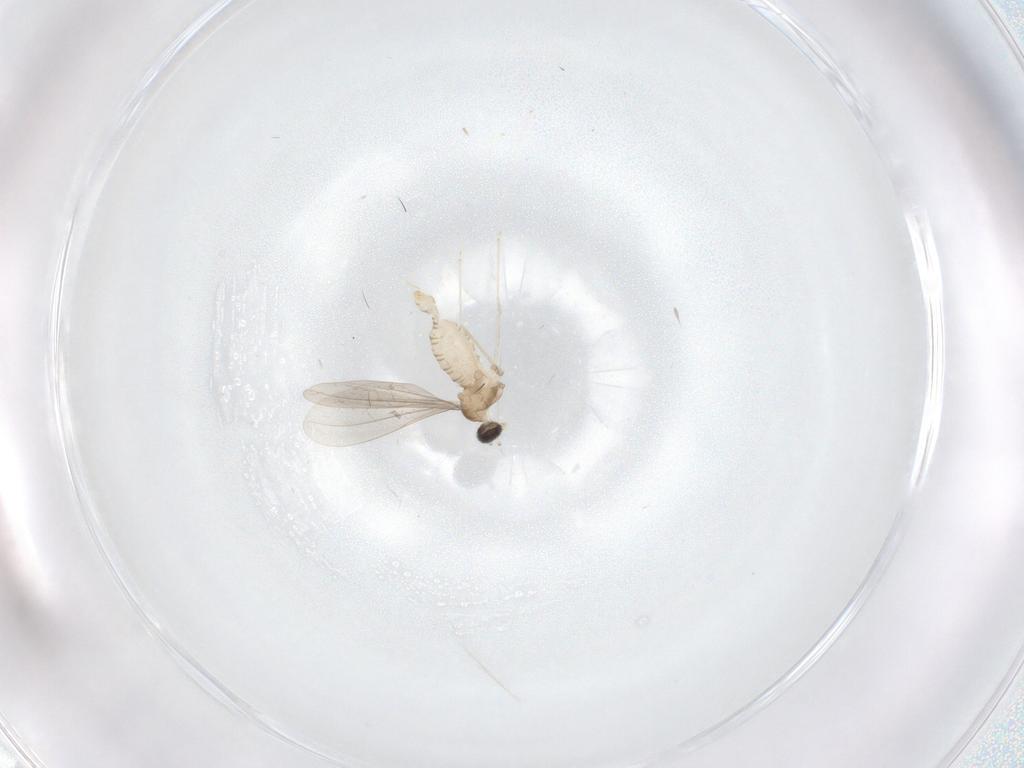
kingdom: Animalia
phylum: Arthropoda
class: Insecta
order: Diptera
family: Cecidomyiidae
